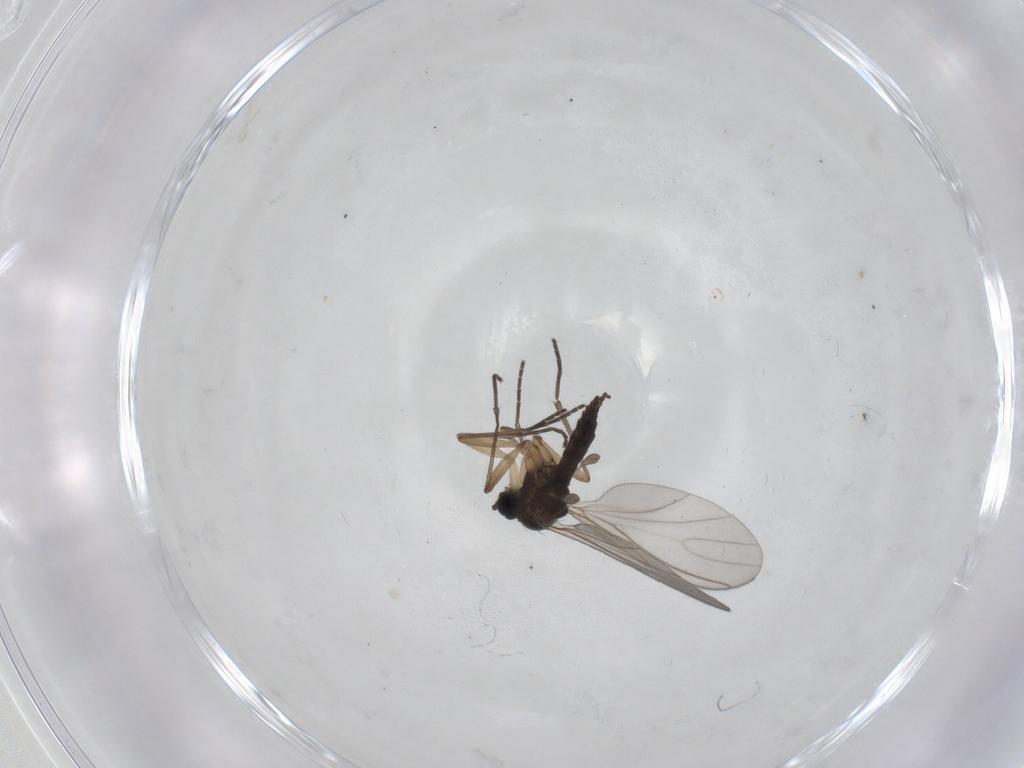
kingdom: Animalia
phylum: Arthropoda
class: Insecta
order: Diptera
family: Sciaridae
